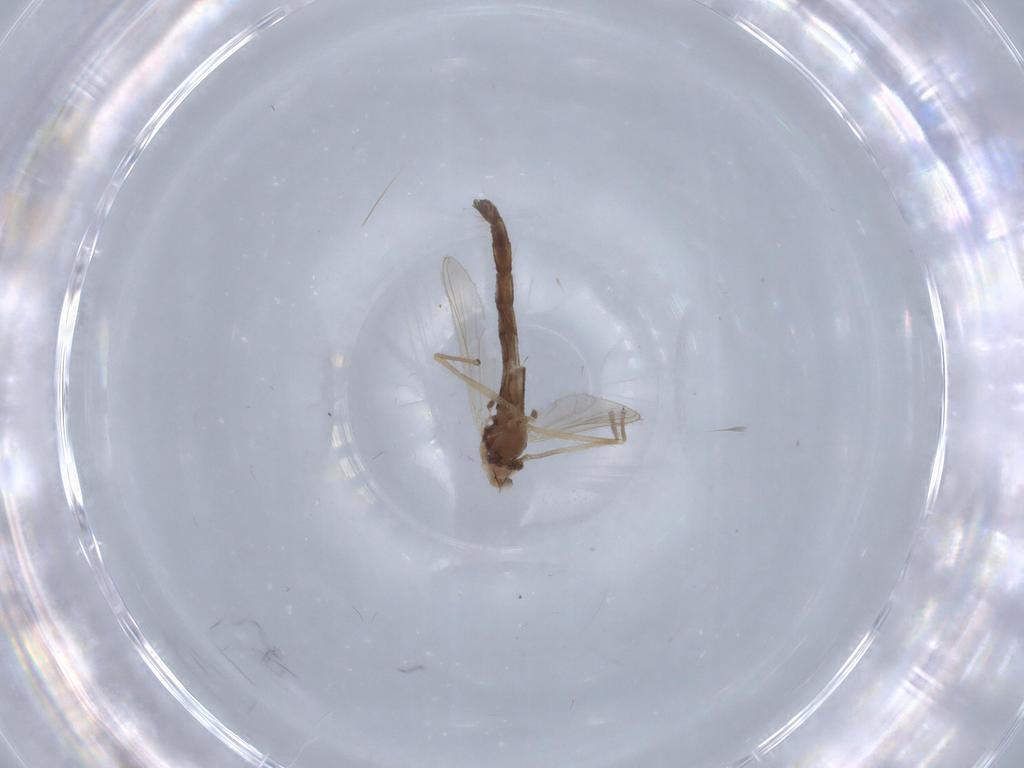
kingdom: Animalia
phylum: Arthropoda
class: Insecta
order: Diptera
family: Chironomidae
